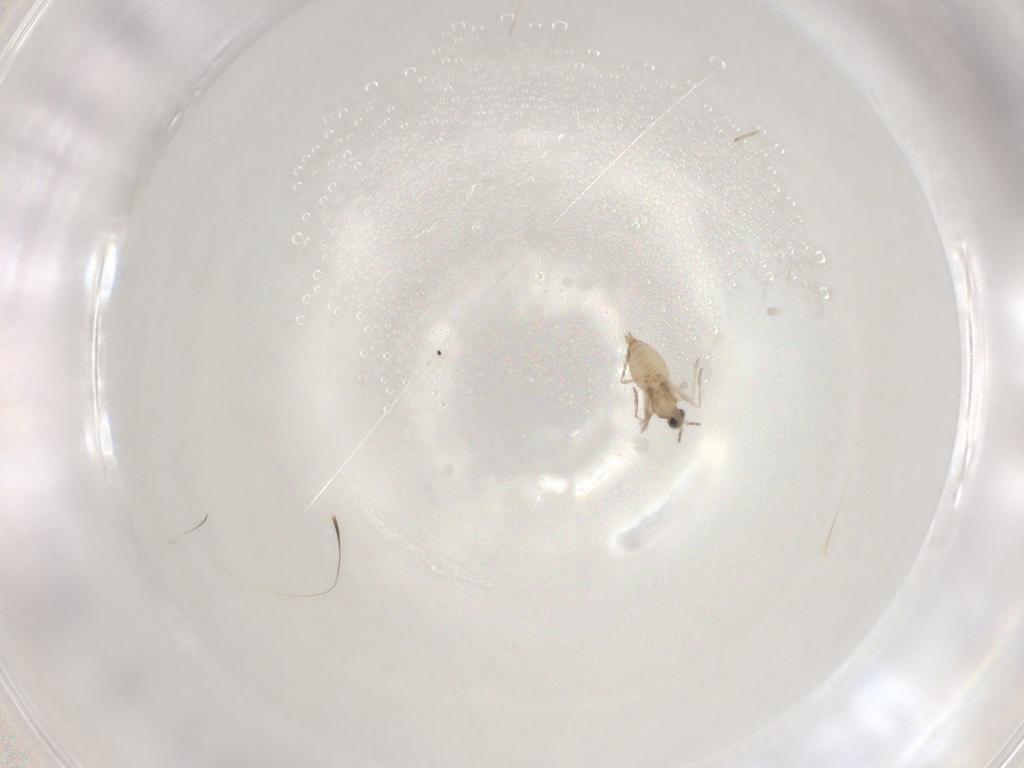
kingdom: Animalia
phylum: Arthropoda
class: Insecta
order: Diptera
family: Cecidomyiidae
